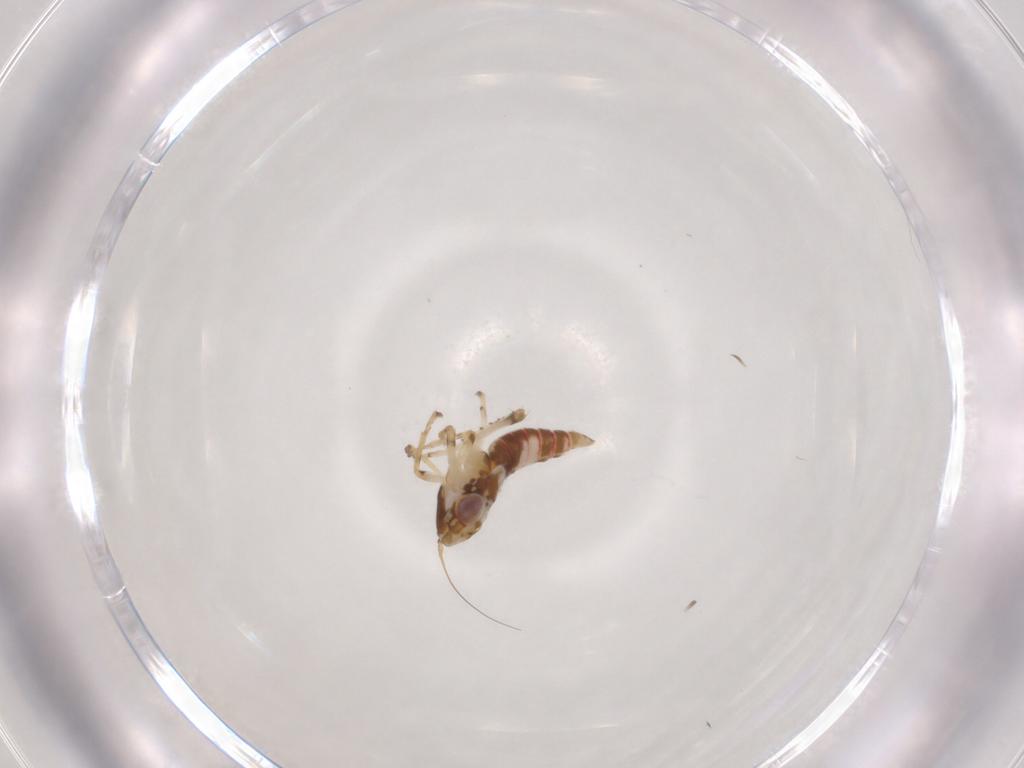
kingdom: Animalia
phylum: Arthropoda
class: Insecta
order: Hemiptera
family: Cicadellidae
